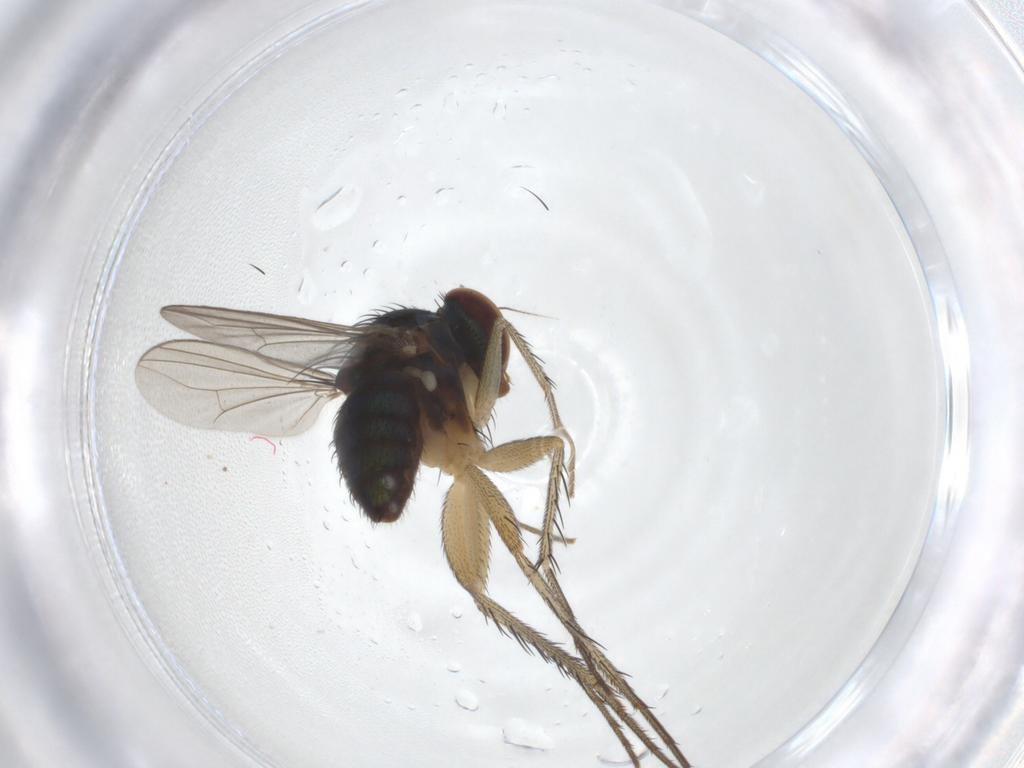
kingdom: Animalia
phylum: Arthropoda
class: Insecta
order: Diptera
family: Dolichopodidae
